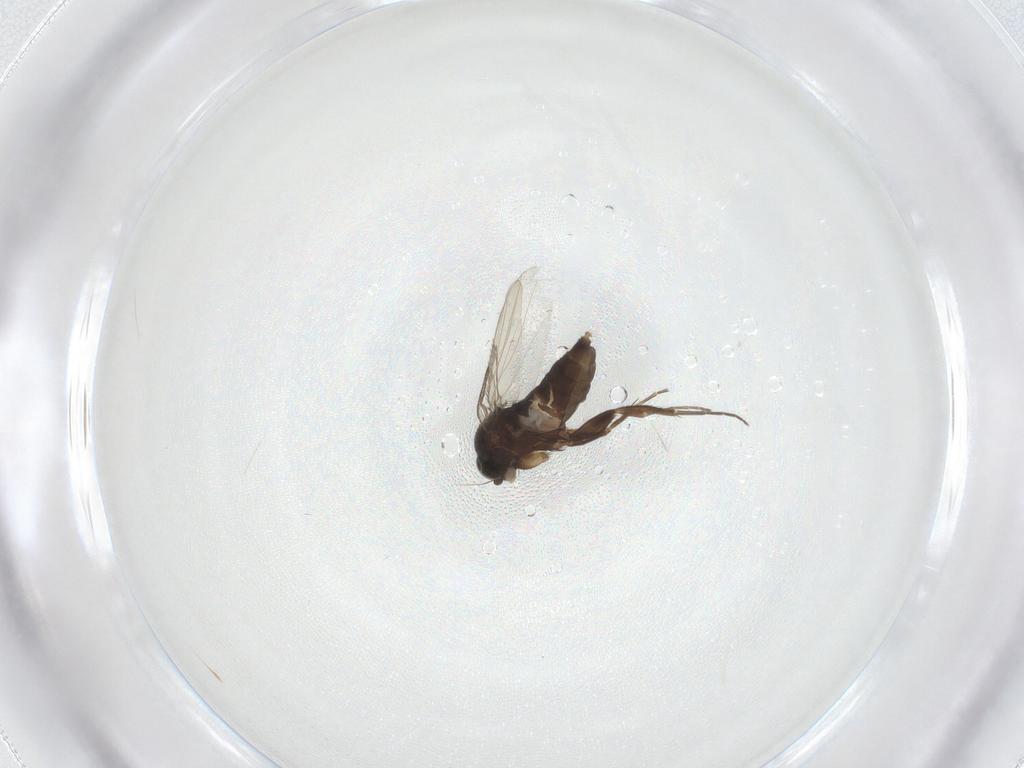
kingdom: Animalia
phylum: Arthropoda
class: Insecta
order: Diptera
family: Phoridae
